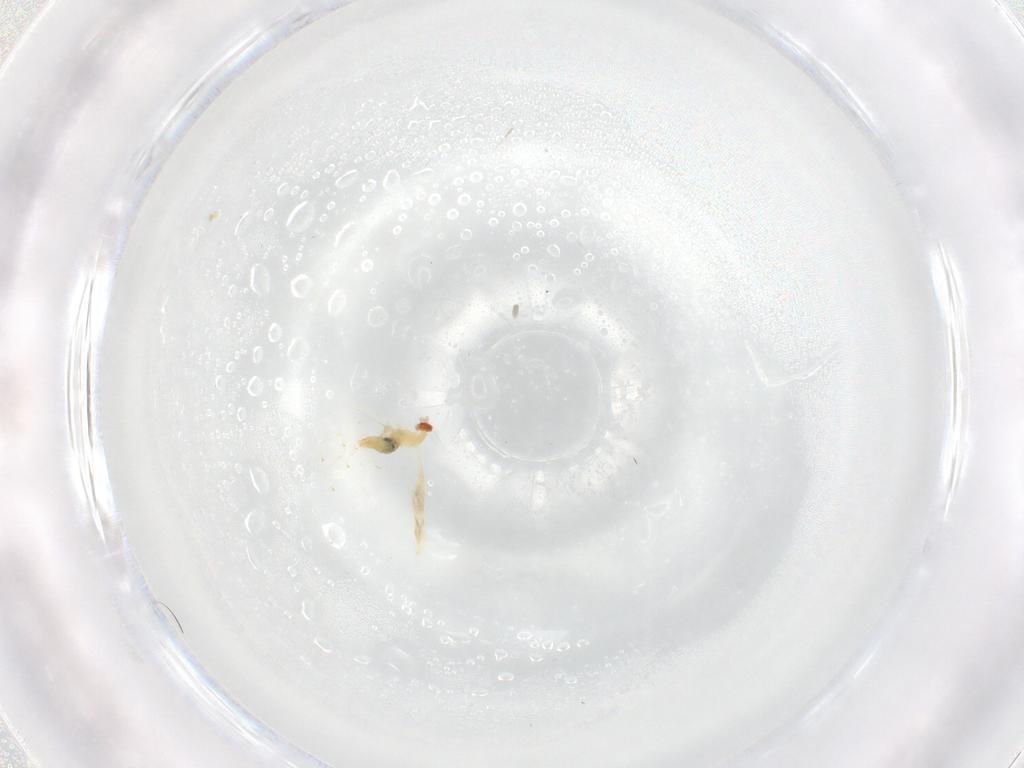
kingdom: Animalia
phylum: Arthropoda
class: Insecta
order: Diptera
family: Cecidomyiidae
